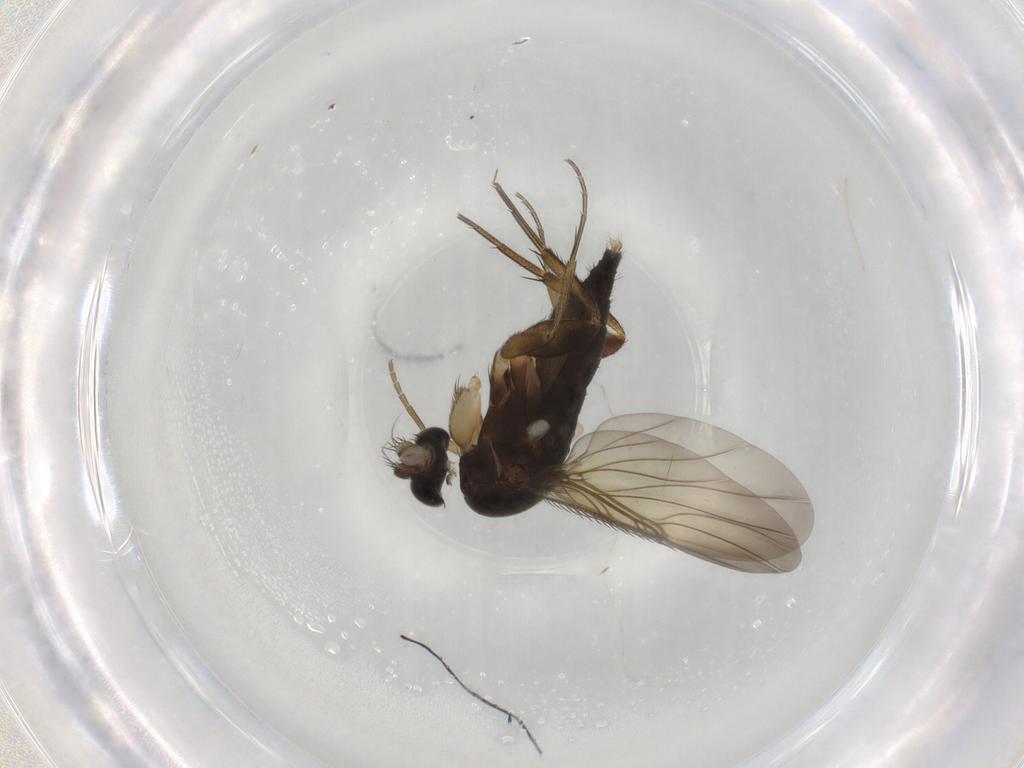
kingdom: Animalia
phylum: Arthropoda
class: Insecta
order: Diptera
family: Phoridae
